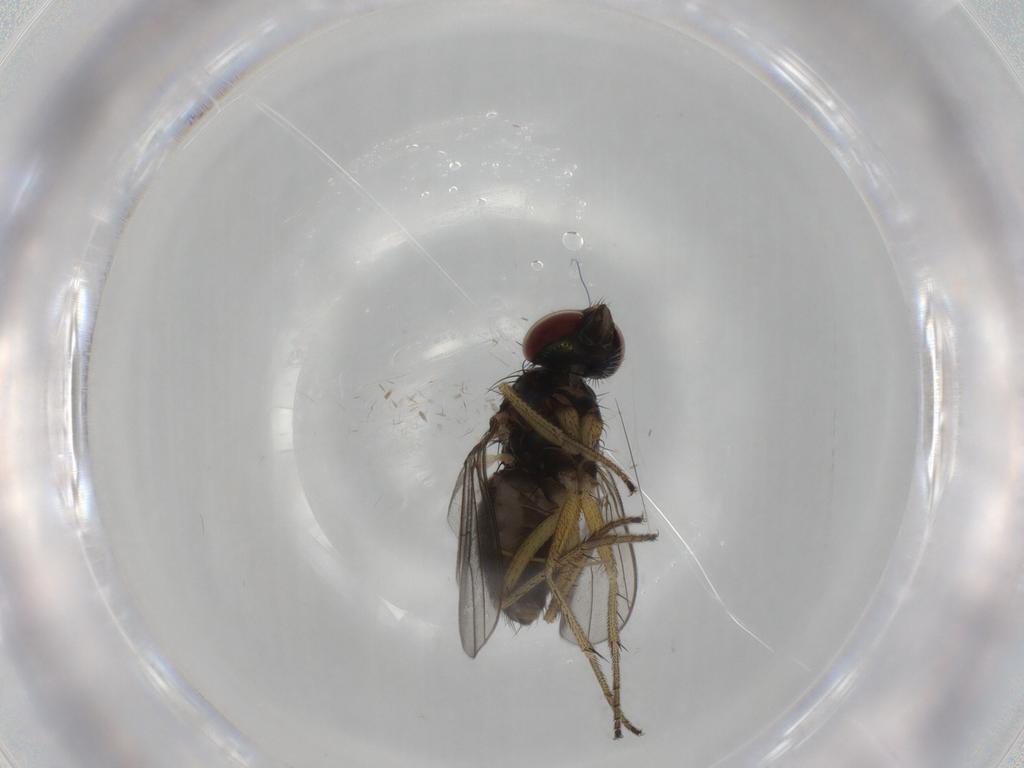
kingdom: Animalia
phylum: Arthropoda
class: Insecta
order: Diptera
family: Dolichopodidae
